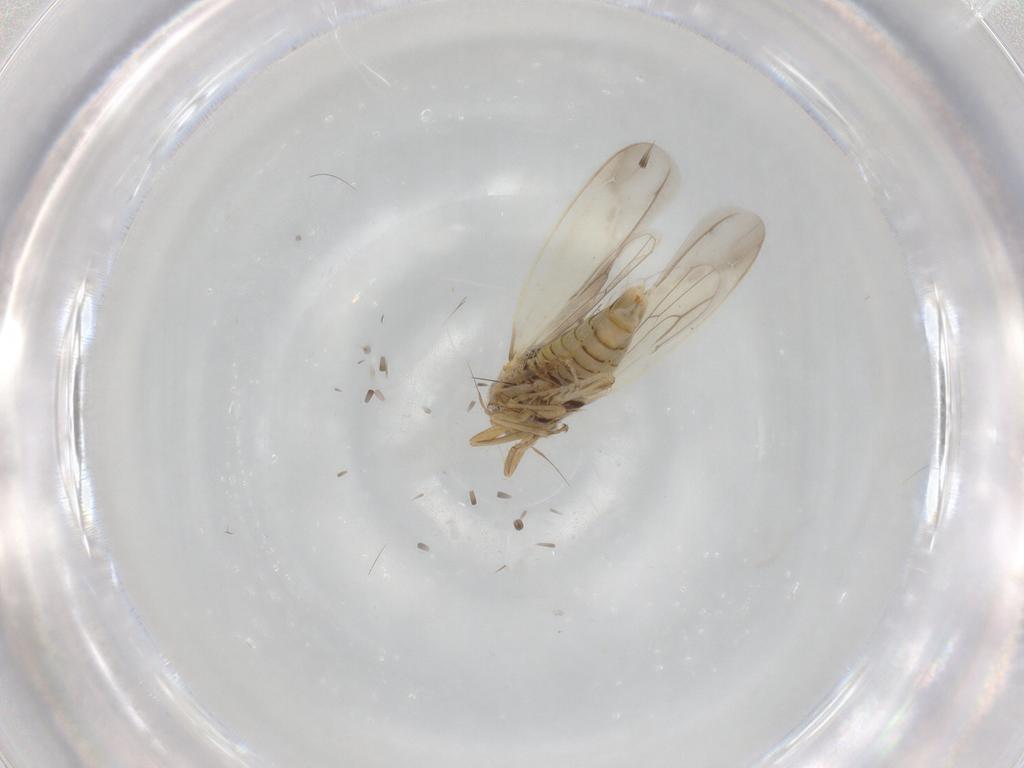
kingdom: Animalia
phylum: Arthropoda
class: Insecta
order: Hemiptera
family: Cicadellidae
